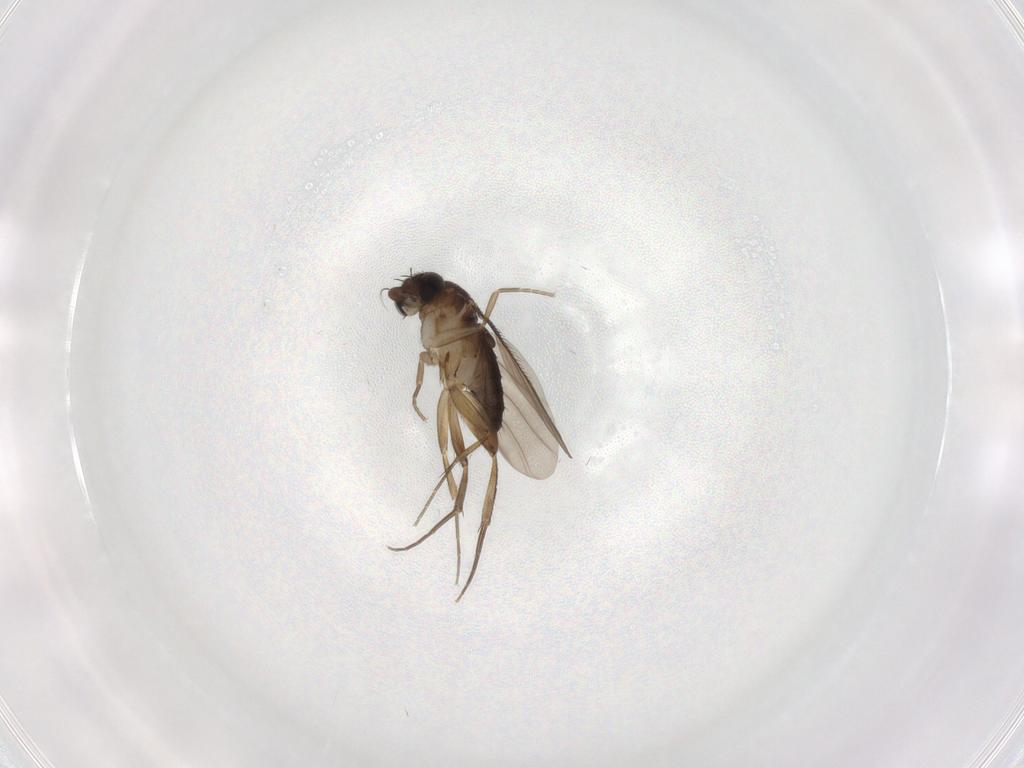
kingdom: Animalia
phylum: Arthropoda
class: Insecta
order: Diptera
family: Phoridae
